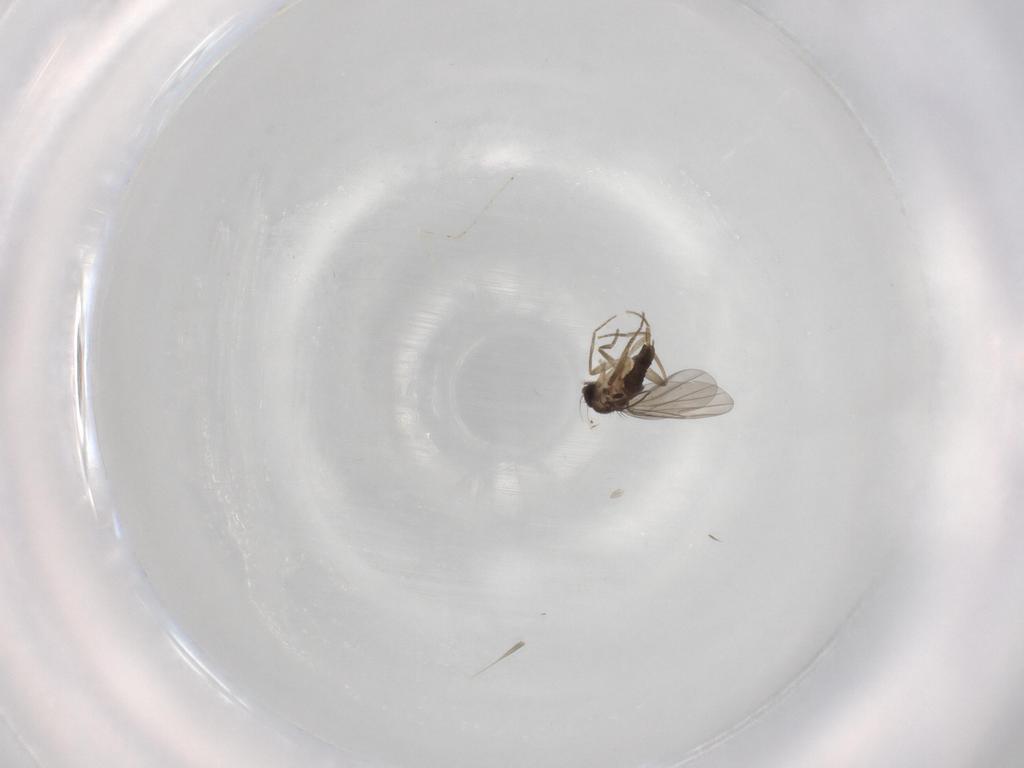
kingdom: Animalia
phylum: Arthropoda
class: Insecta
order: Diptera
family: Phoridae
